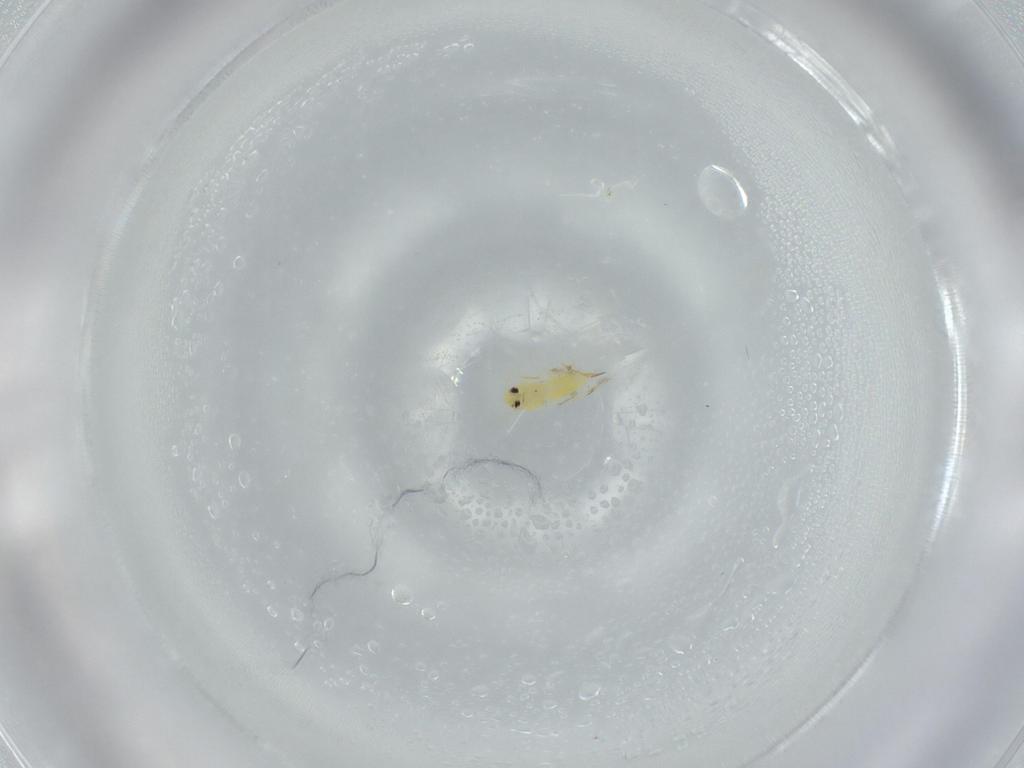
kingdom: Animalia
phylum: Arthropoda
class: Insecta
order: Hemiptera
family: Aleyrodidae
